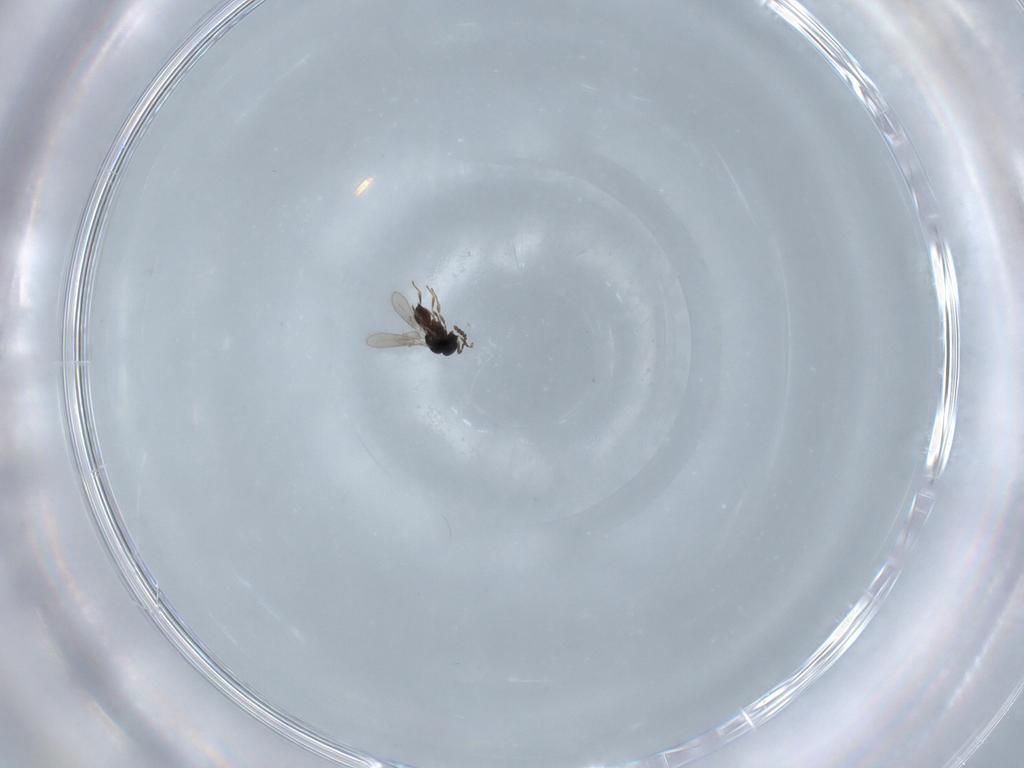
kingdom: Animalia
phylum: Arthropoda
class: Insecta
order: Hymenoptera
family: Scelionidae
